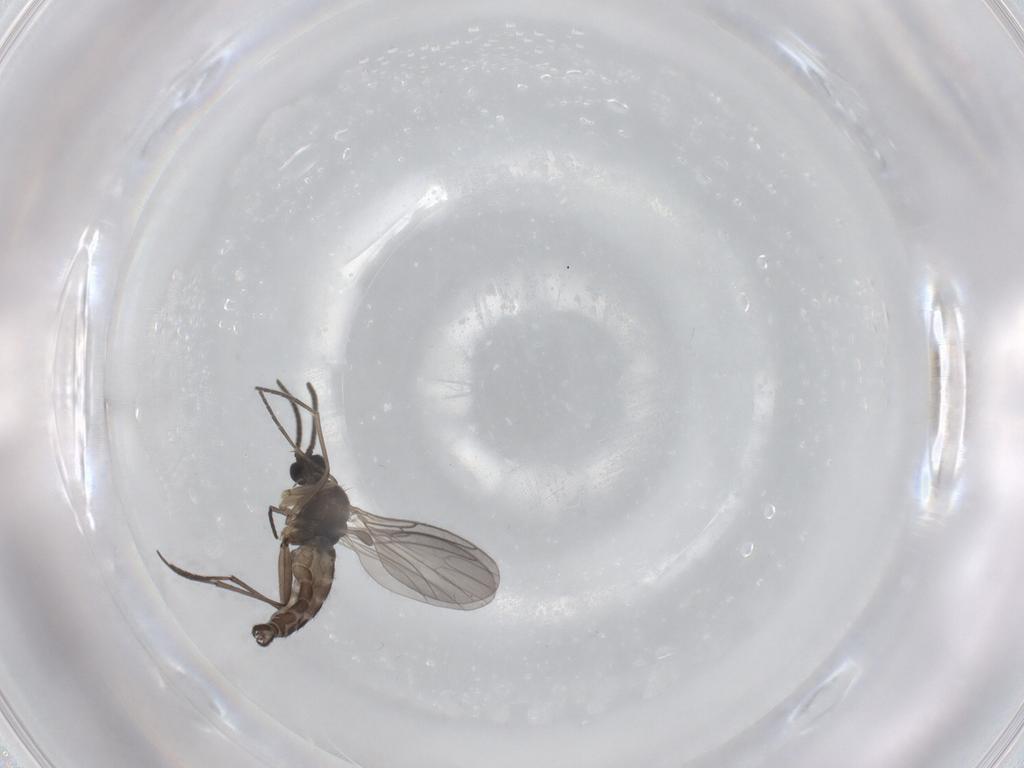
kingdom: Animalia
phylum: Arthropoda
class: Insecta
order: Diptera
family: Sciaridae
